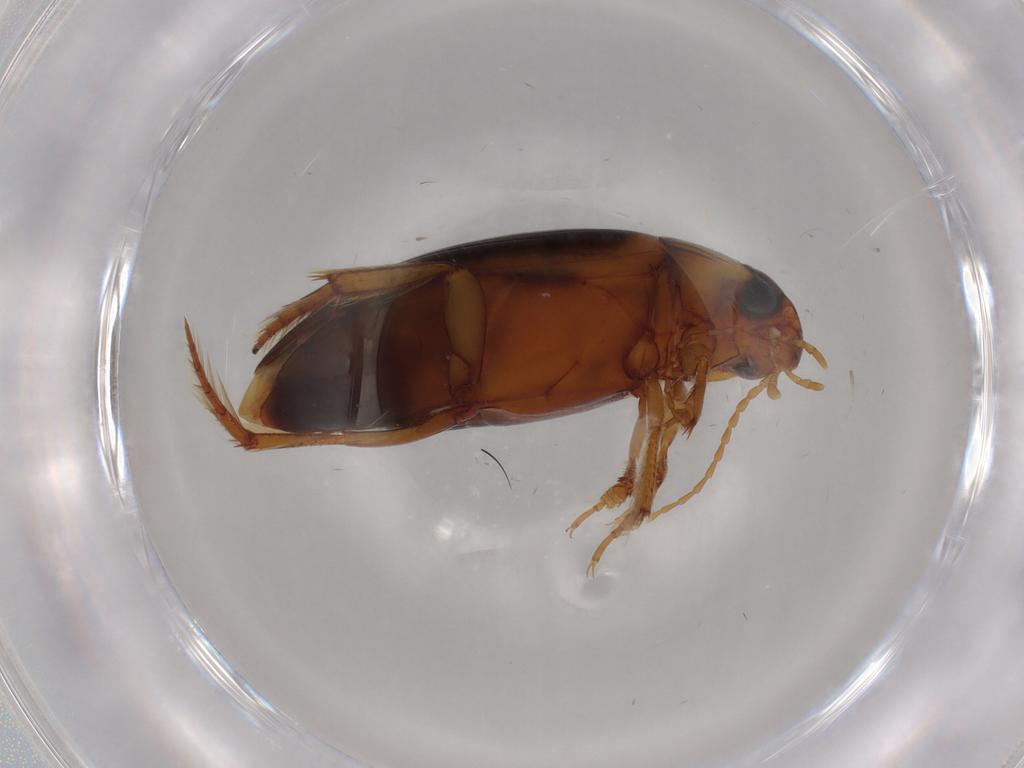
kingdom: Animalia
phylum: Arthropoda
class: Insecta
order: Coleoptera
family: Dytiscidae
